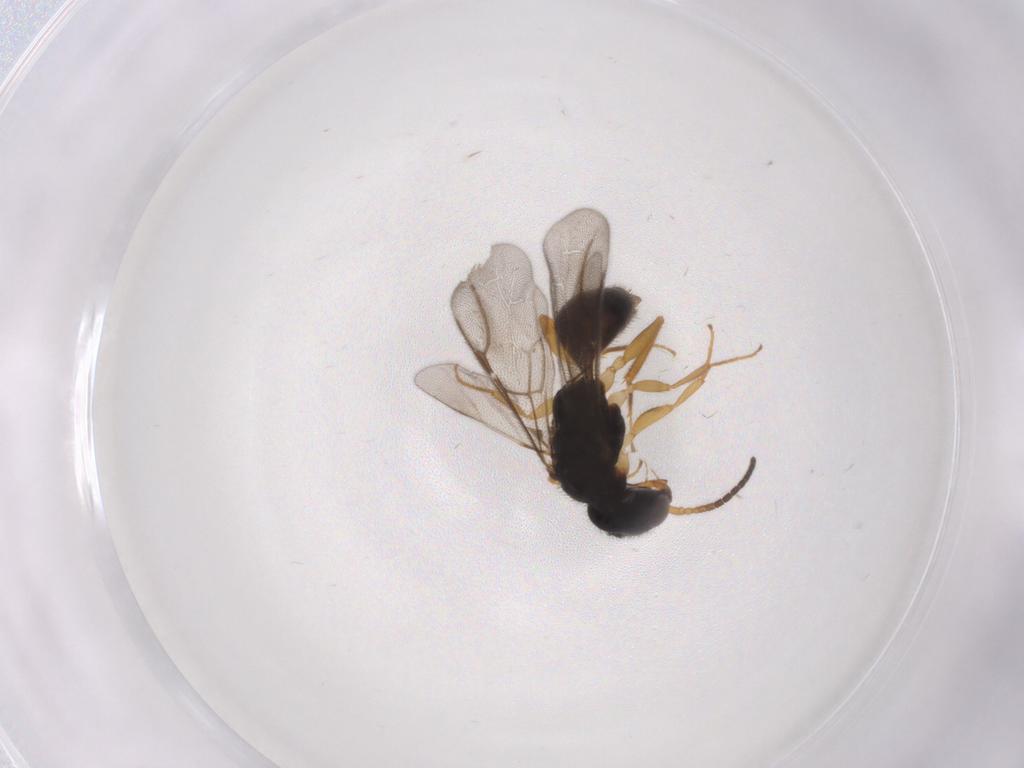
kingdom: Animalia
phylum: Arthropoda
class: Insecta
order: Hymenoptera
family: Bethylidae
